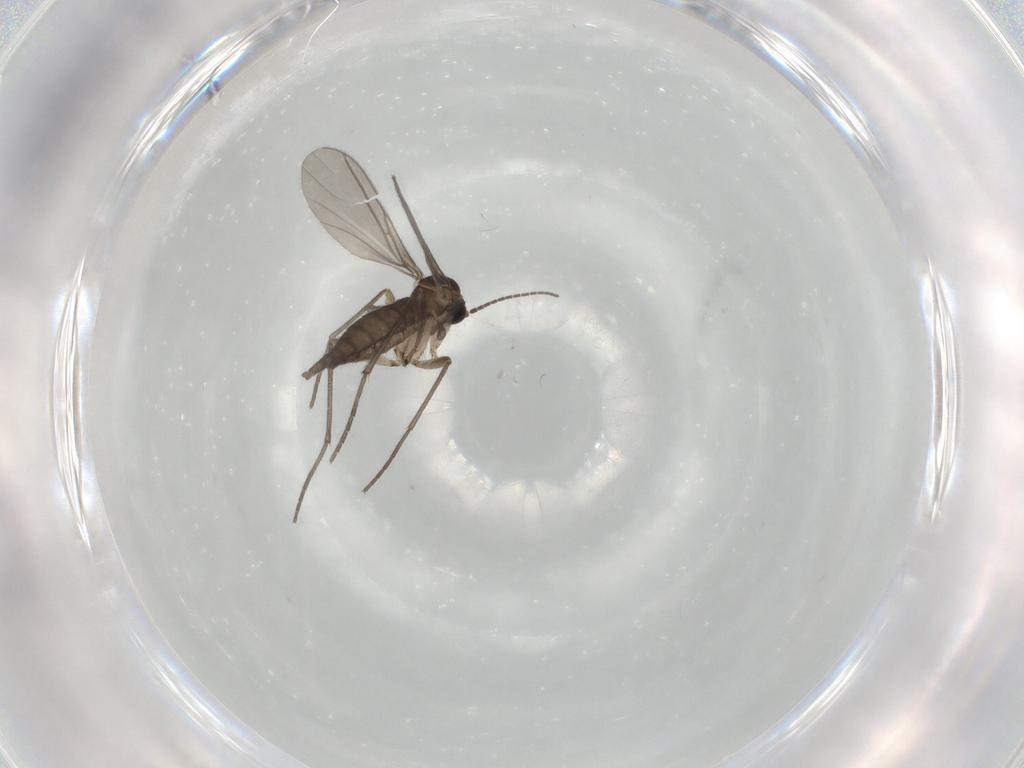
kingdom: Animalia
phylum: Arthropoda
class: Insecta
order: Diptera
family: Sciaridae
